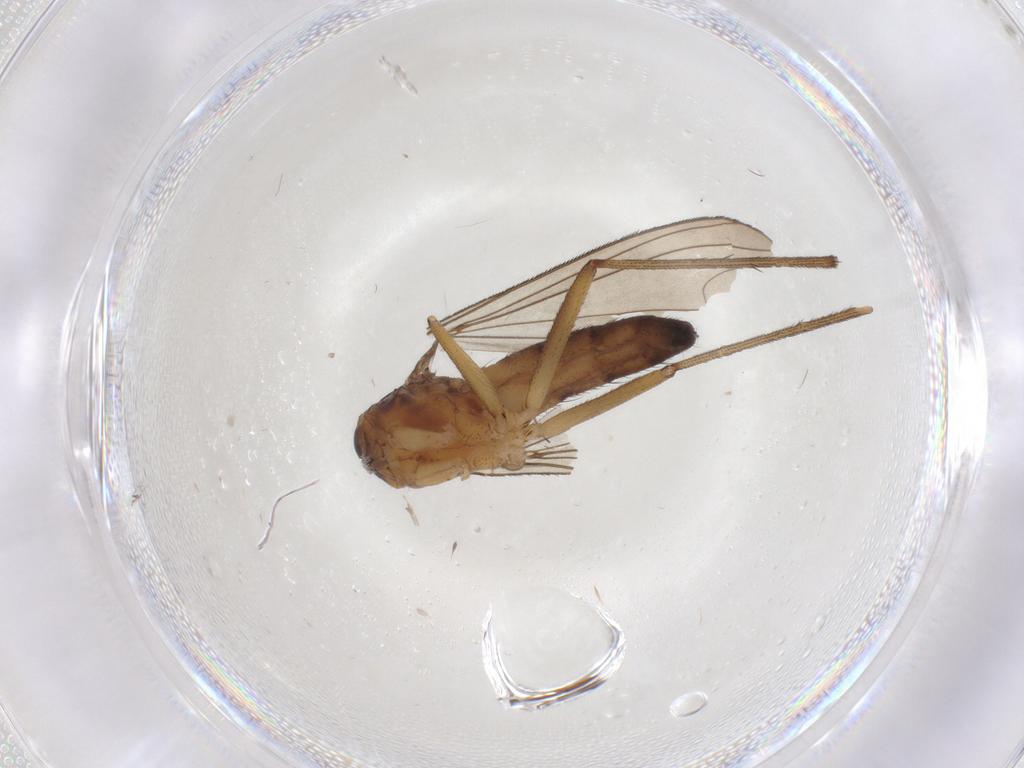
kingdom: Animalia
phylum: Arthropoda
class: Insecta
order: Diptera
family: Dolichopodidae
